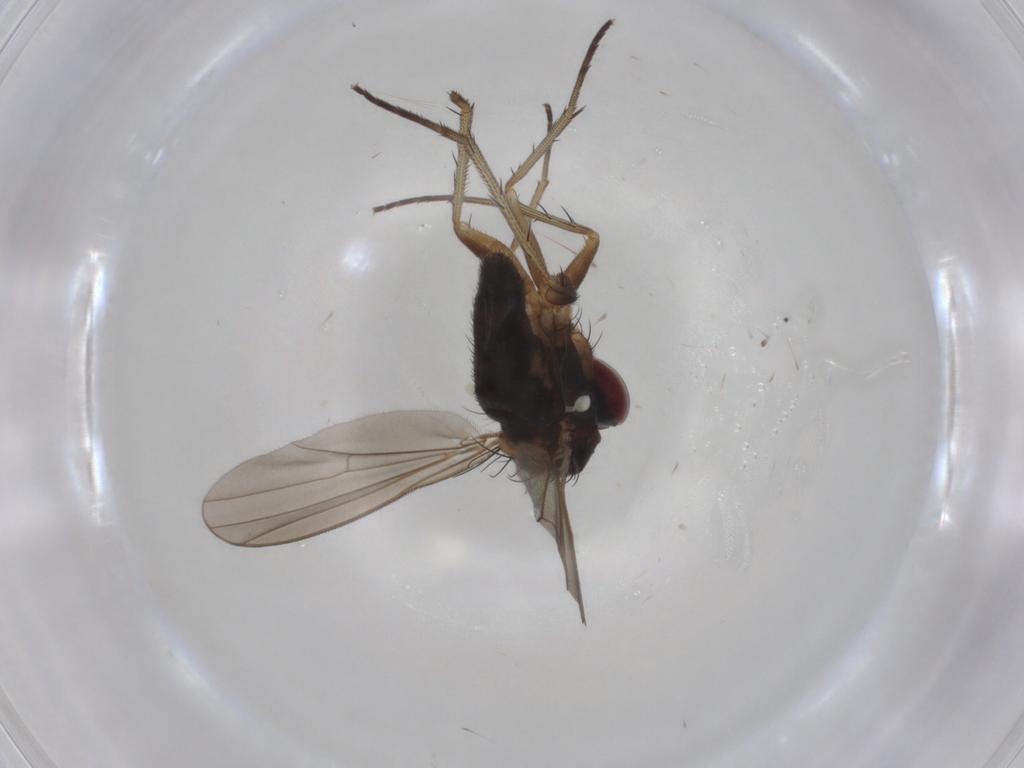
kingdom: Animalia
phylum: Arthropoda
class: Insecta
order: Diptera
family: Dolichopodidae
